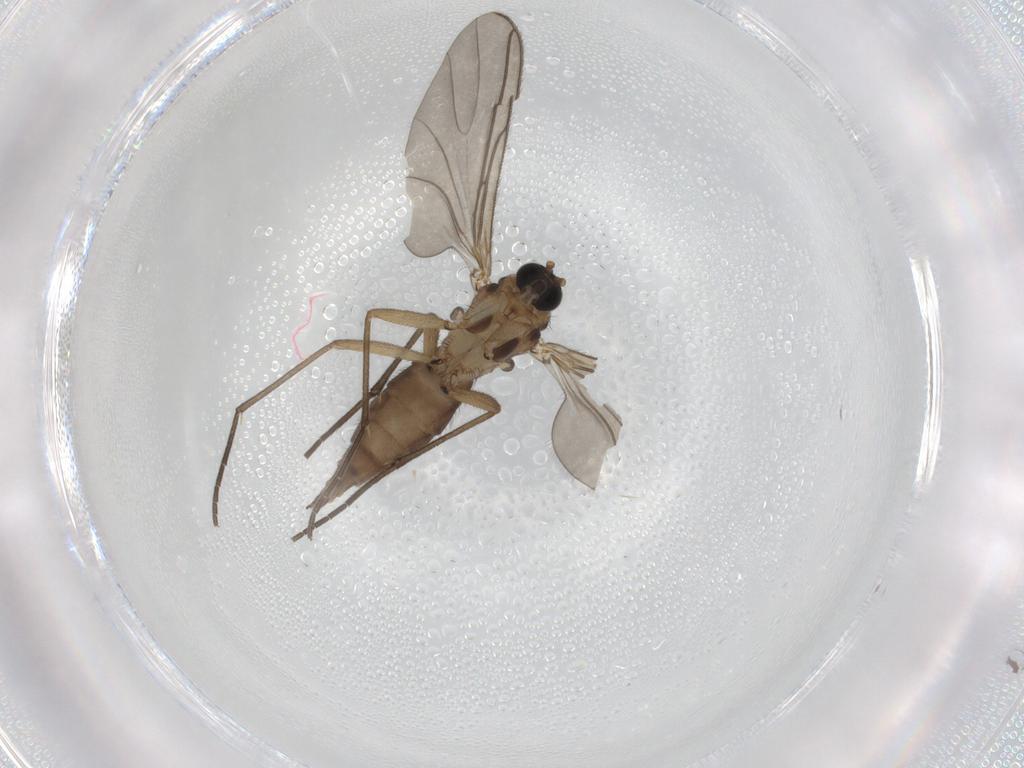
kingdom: Animalia
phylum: Arthropoda
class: Insecta
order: Diptera
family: Sciaridae
